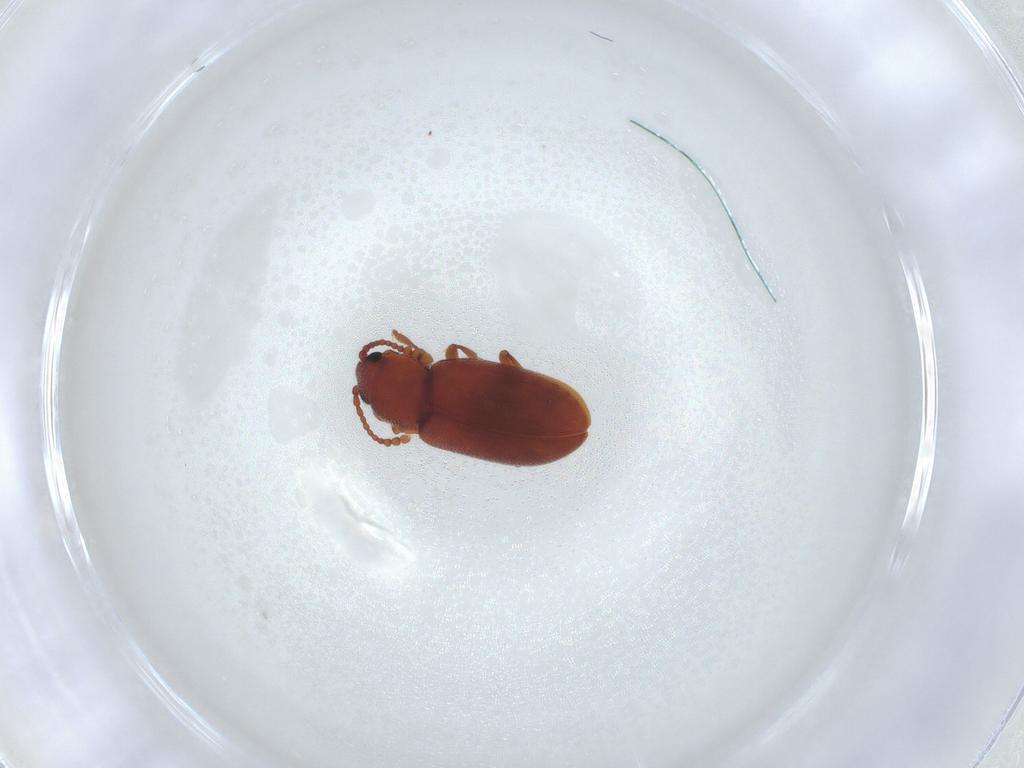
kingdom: Animalia
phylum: Arthropoda
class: Insecta
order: Coleoptera
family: Cryptophagidae
